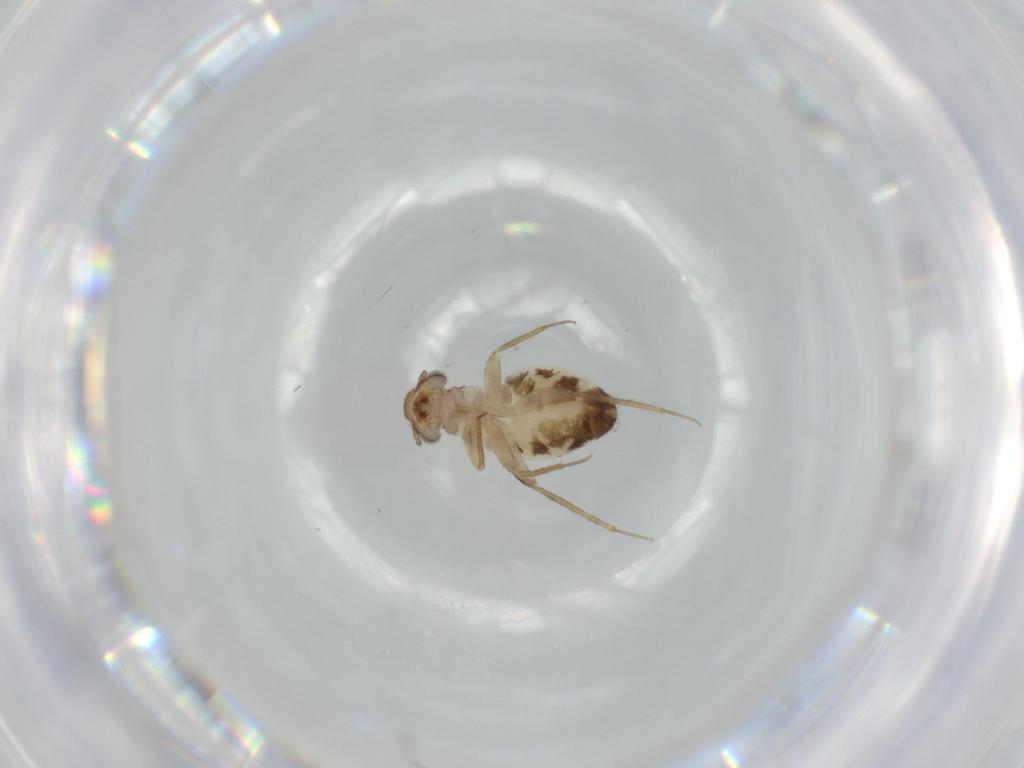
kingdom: Animalia
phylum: Arthropoda
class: Insecta
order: Psocodea
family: Lepidopsocidae
